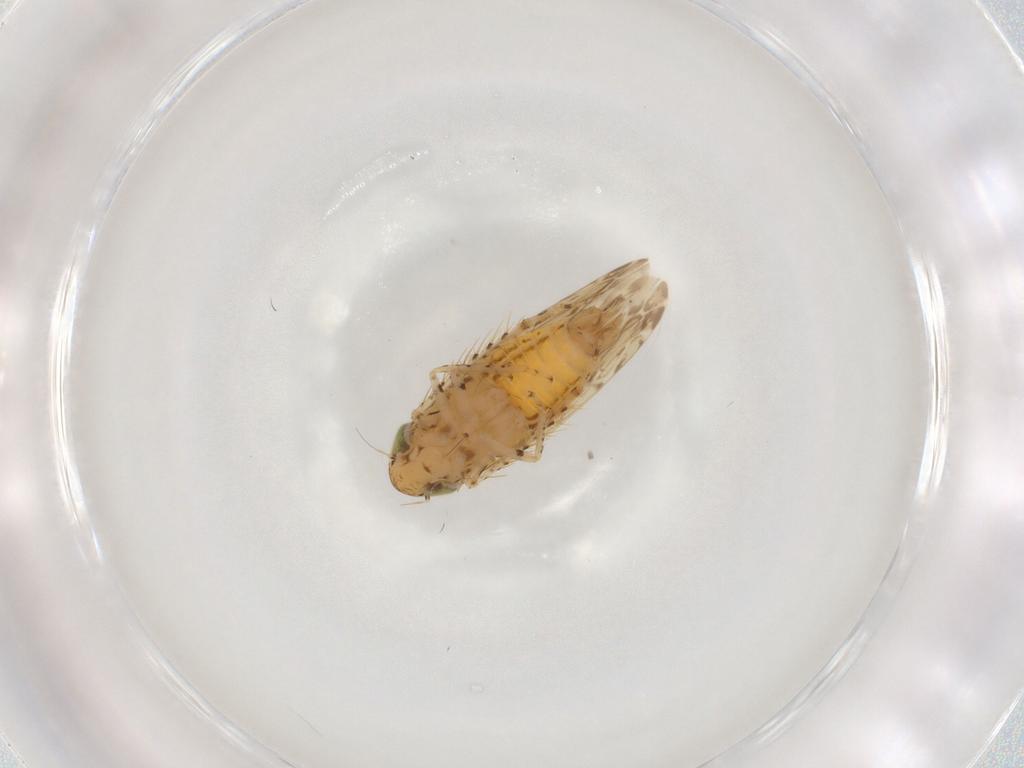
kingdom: Animalia
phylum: Arthropoda
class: Insecta
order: Hemiptera
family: Cicadellidae
